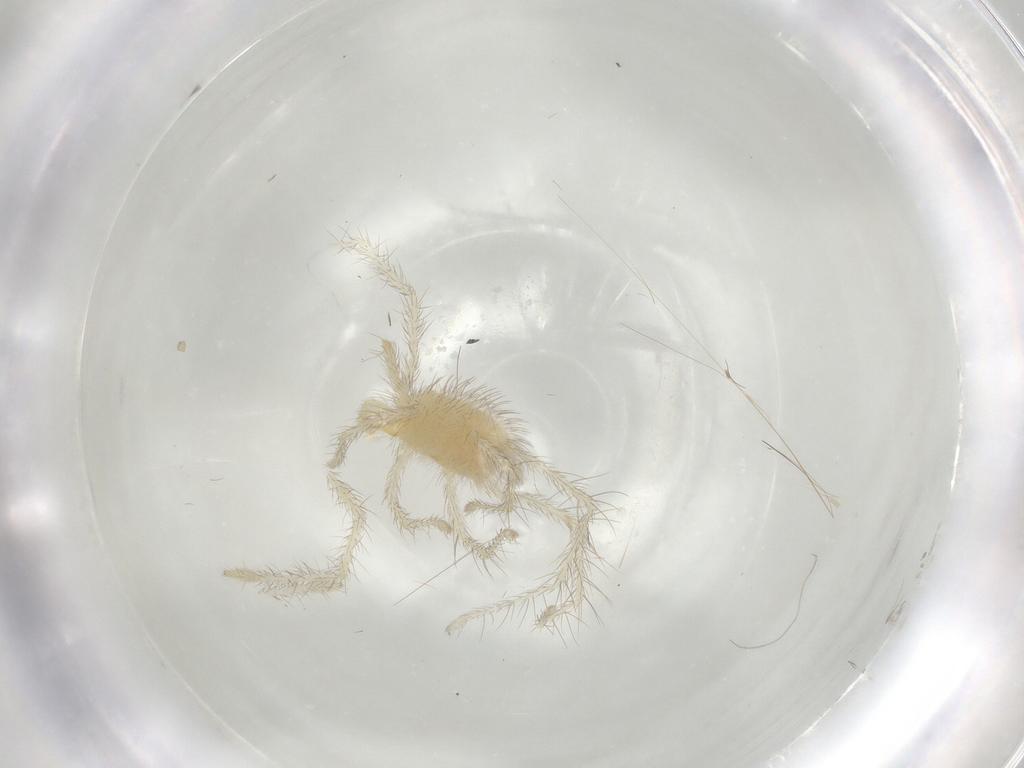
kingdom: Animalia
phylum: Arthropoda
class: Arachnida
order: Trombidiformes
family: Erythraeidae
